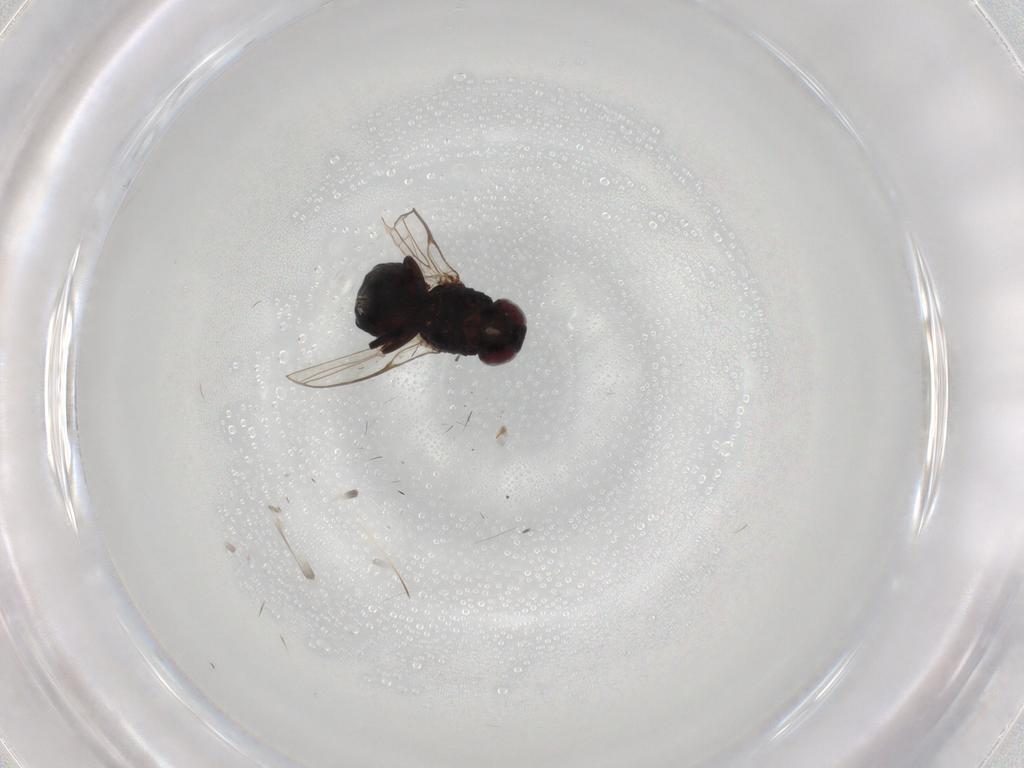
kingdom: Animalia
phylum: Arthropoda
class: Insecta
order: Diptera
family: Agromyzidae
